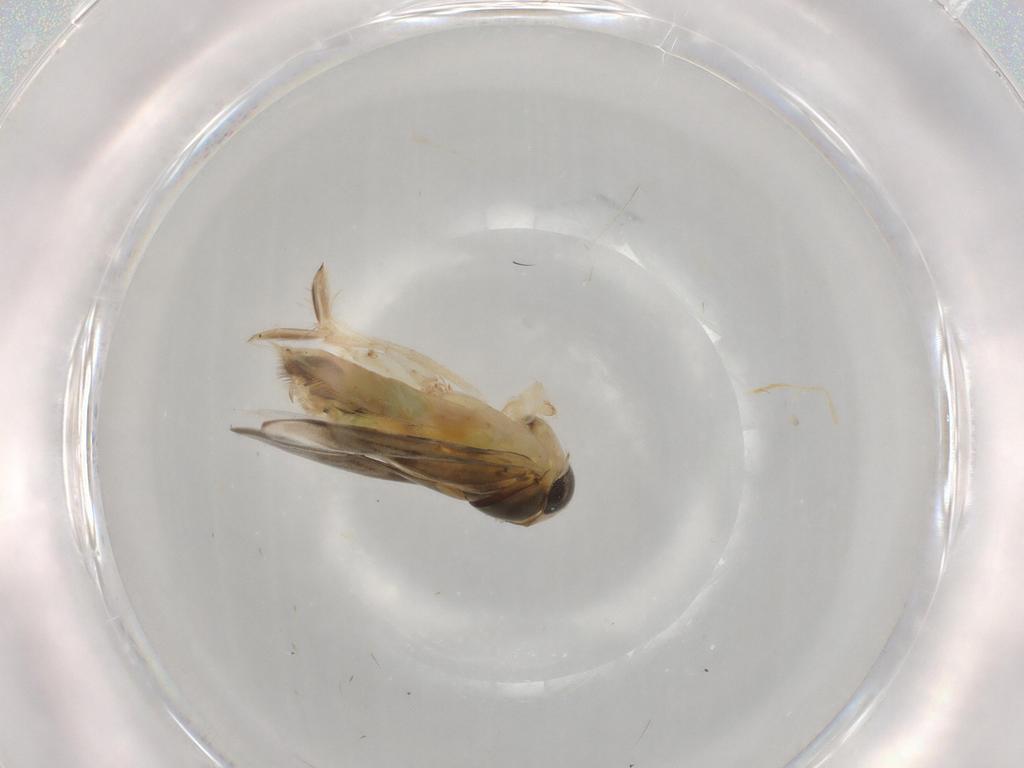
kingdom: Animalia
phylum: Arthropoda
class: Insecta
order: Hemiptera
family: Corixidae
